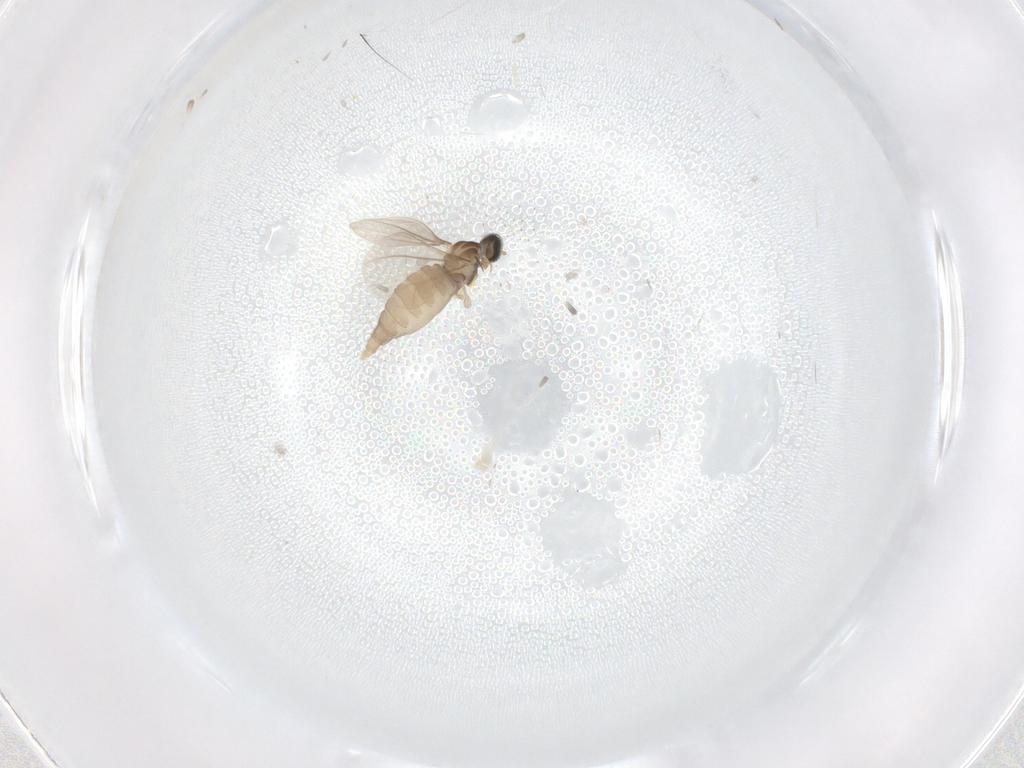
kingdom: Animalia
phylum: Arthropoda
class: Insecta
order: Diptera
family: Cecidomyiidae
